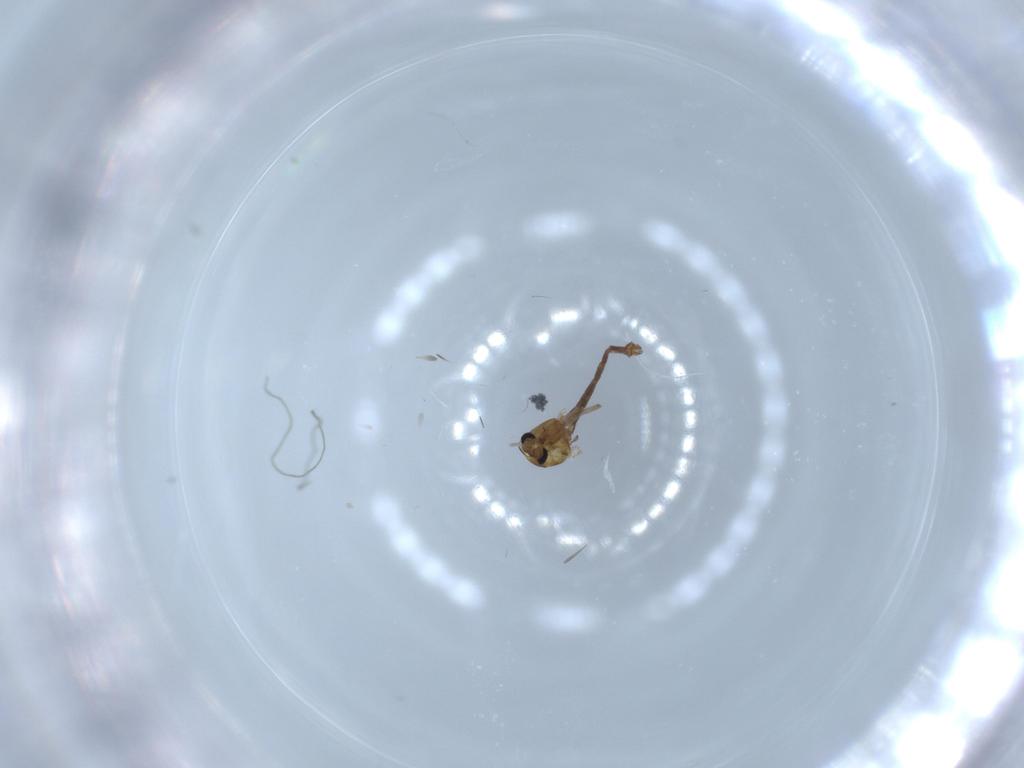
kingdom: Animalia
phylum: Arthropoda
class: Insecta
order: Diptera
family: Chironomidae
